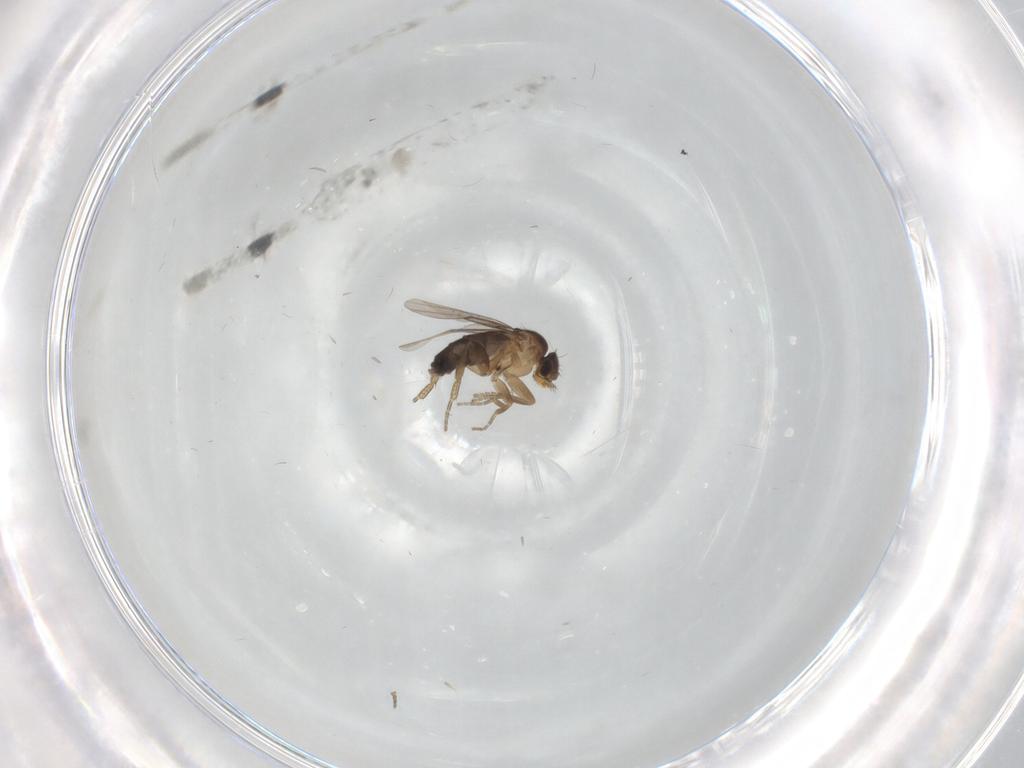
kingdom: Animalia
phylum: Arthropoda
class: Insecta
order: Diptera
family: Phoridae
